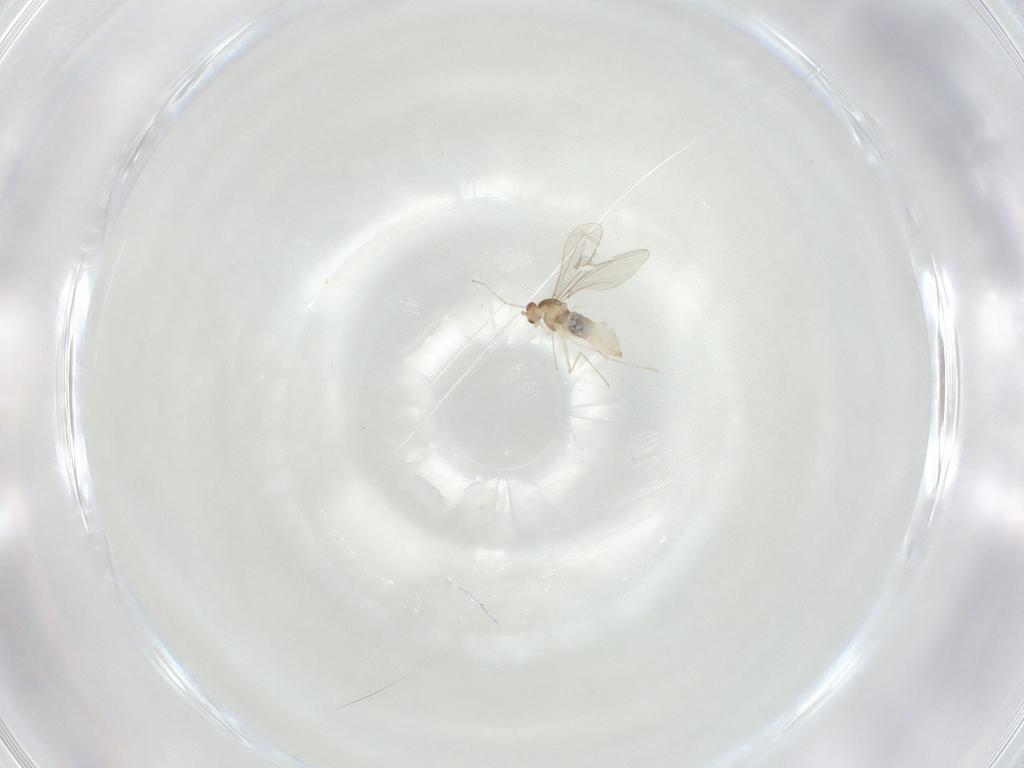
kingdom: Animalia
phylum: Arthropoda
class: Insecta
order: Diptera
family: Cecidomyiidae
